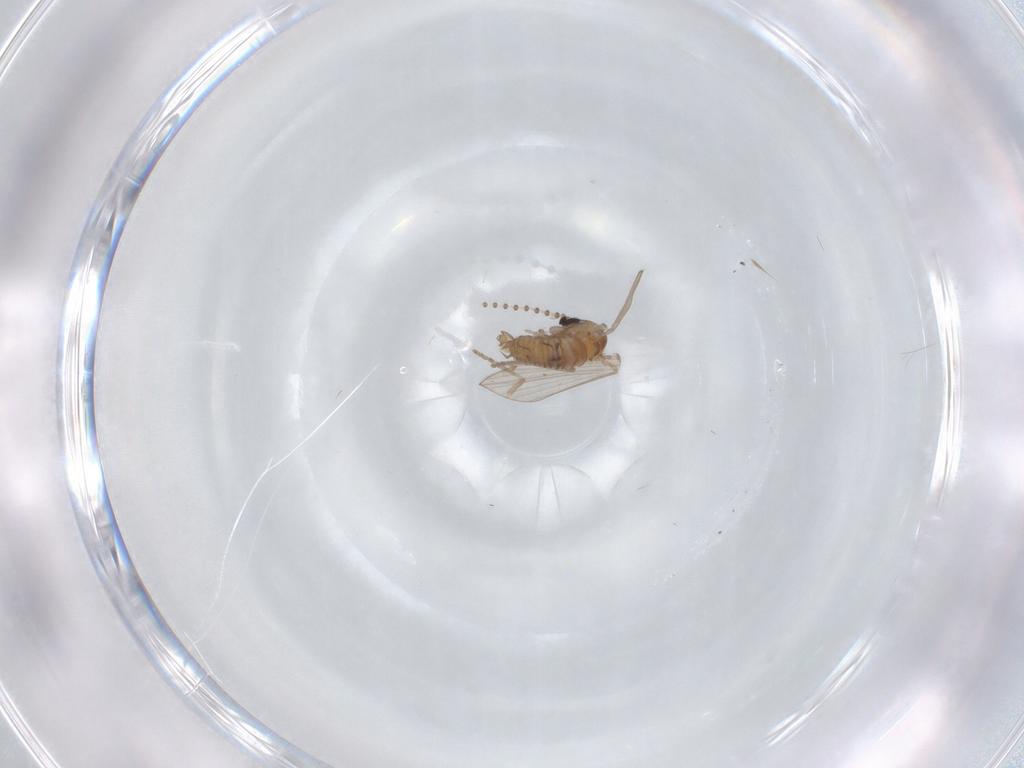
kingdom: Animalia
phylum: Arthropoda
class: Insecta
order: Diptera
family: Psychodidae
